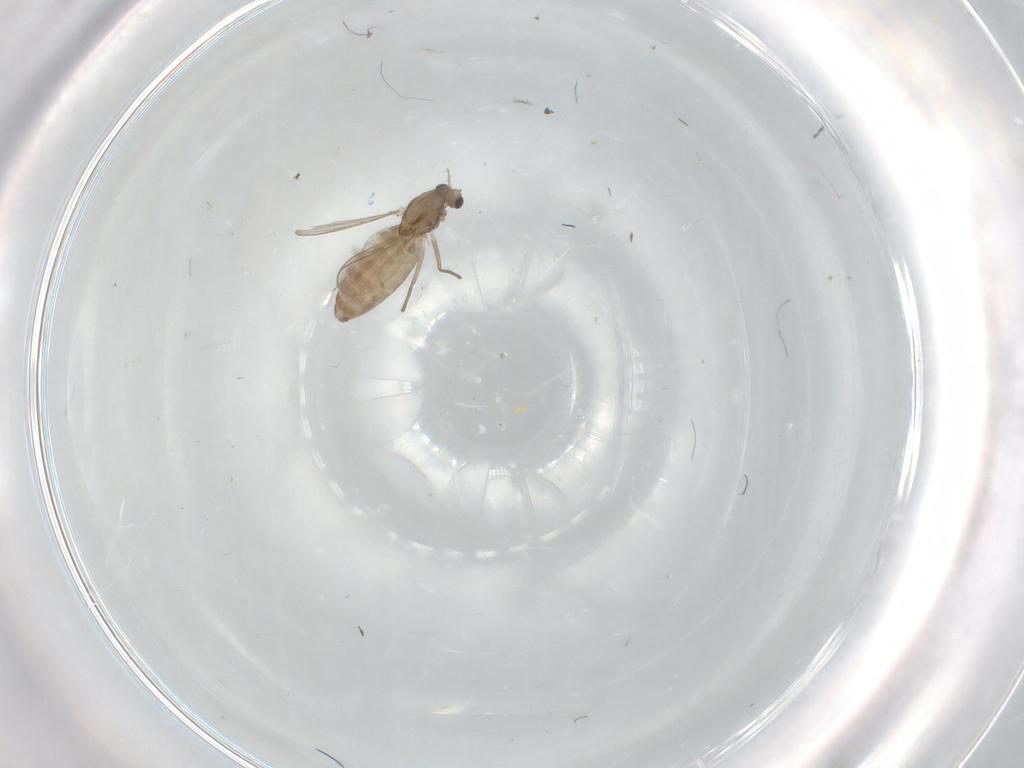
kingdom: Animalia
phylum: Arthropoda
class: Insecta
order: Diptera
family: Chironomidae
